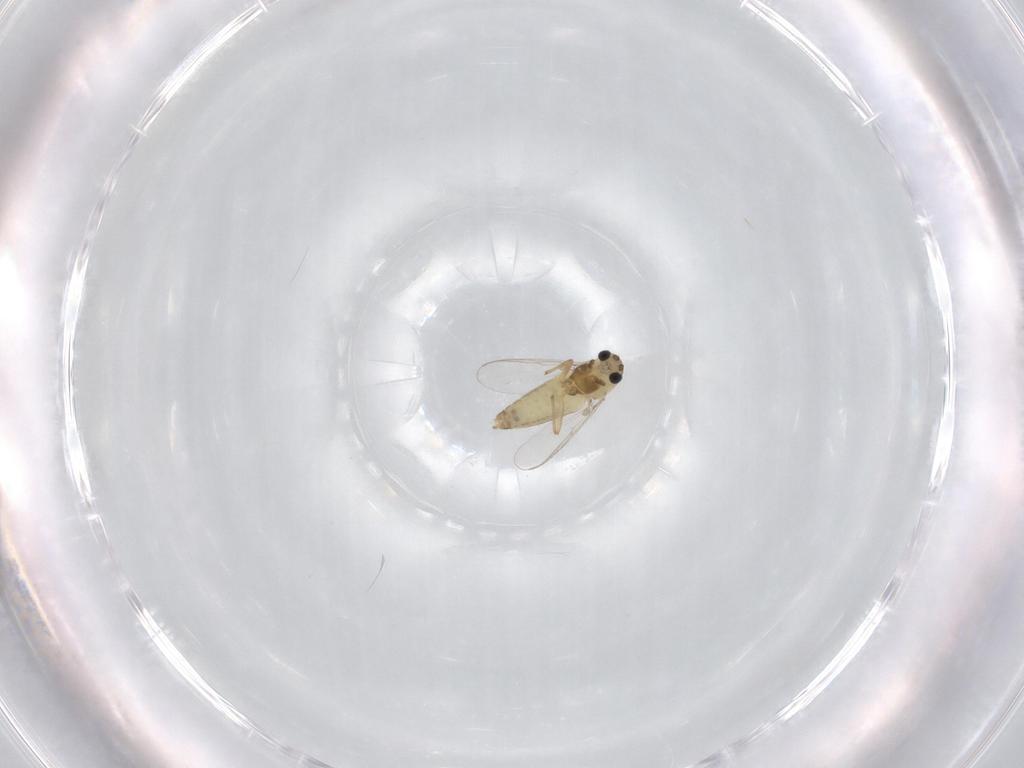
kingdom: Animalia
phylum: Arthropoda
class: Insecta
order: Diptera
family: Chironomidae
